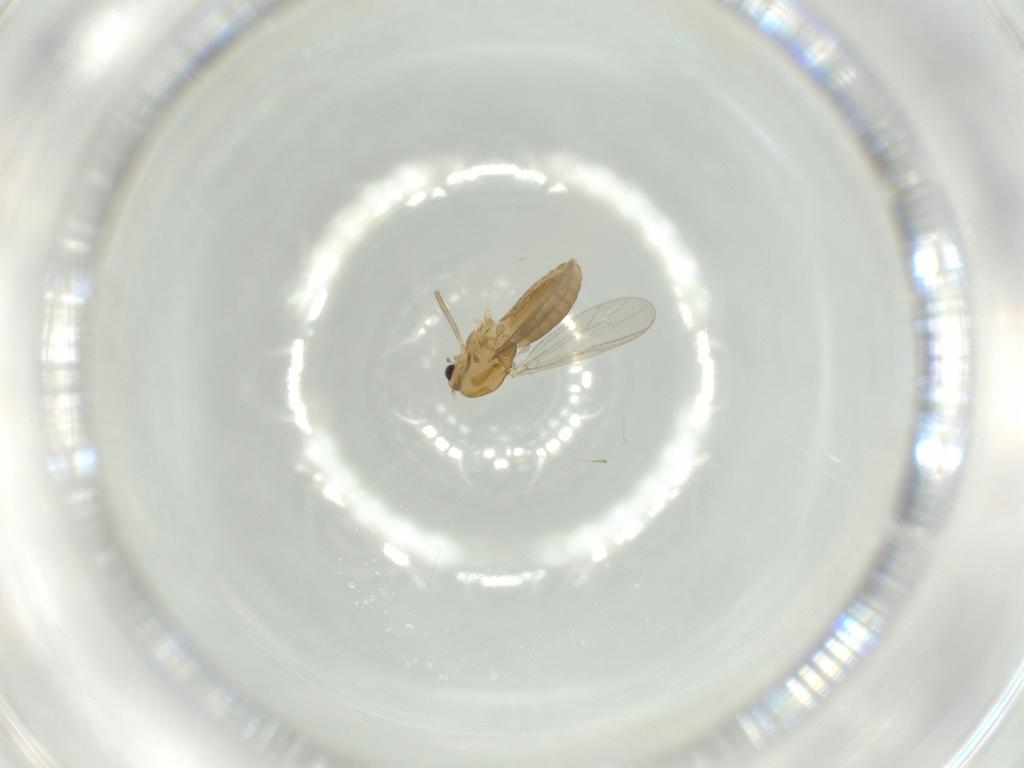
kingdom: Animalia
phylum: Arthropoda
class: Insecta
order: Diptera
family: Chironomidae
